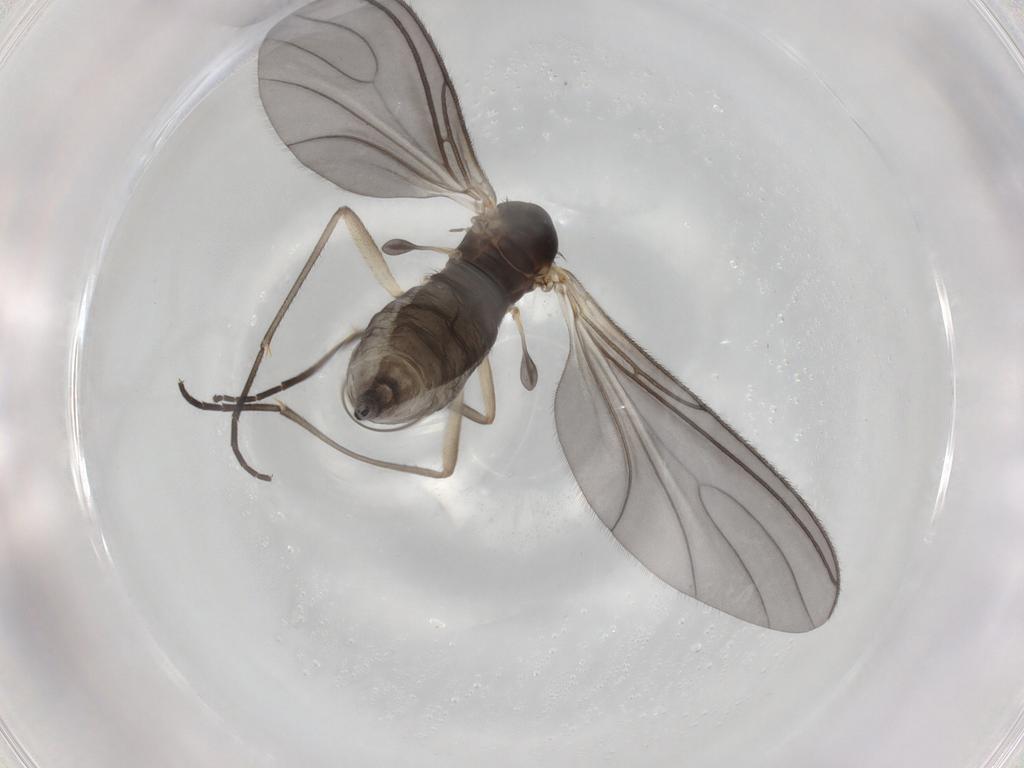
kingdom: Animalia
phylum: Arthropoda
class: Insecta
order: Diptera
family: Sciaridae
